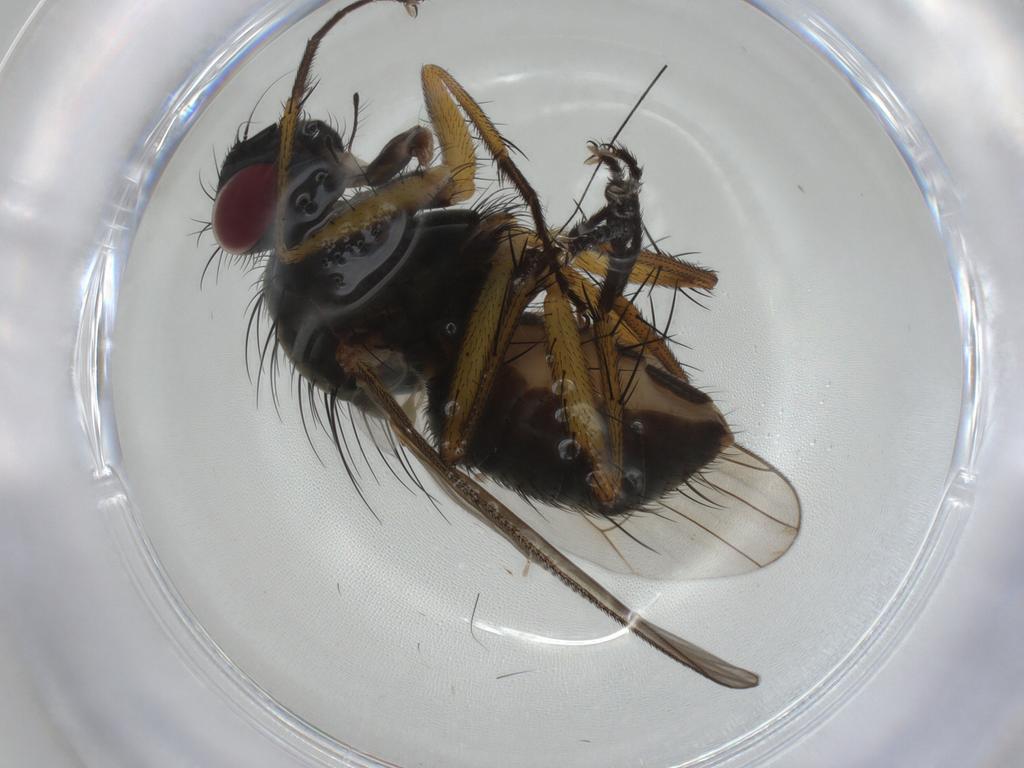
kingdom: Animalia
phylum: Arthropoda
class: Insecta
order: Diptera
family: Muscidae
